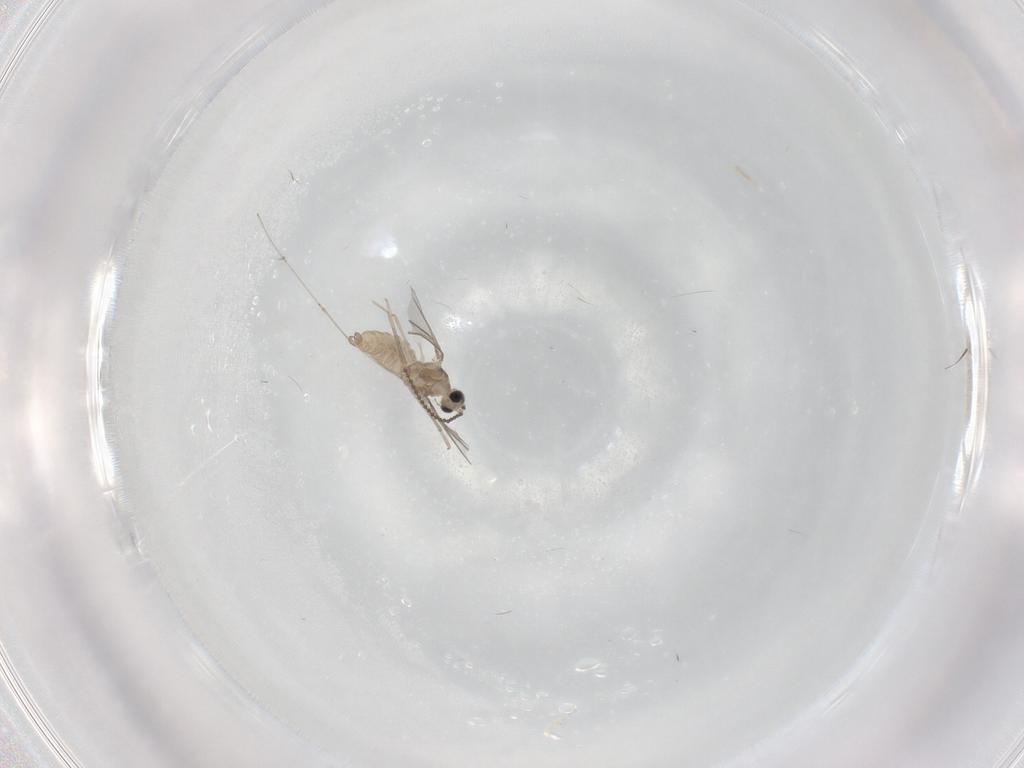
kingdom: Animalia
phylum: Arthropoda
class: Insecta
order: Diptera
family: Cecidomyiidae
